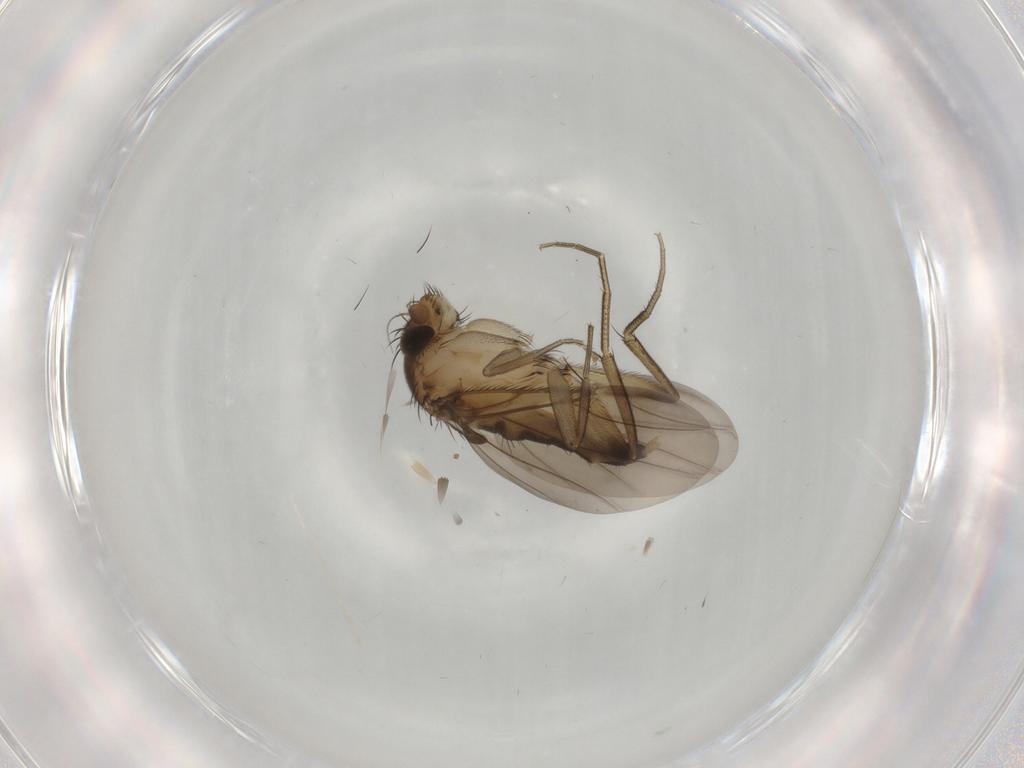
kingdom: Animalia
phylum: Arthropoda
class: Insecta
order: Diptera
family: Phoridae
